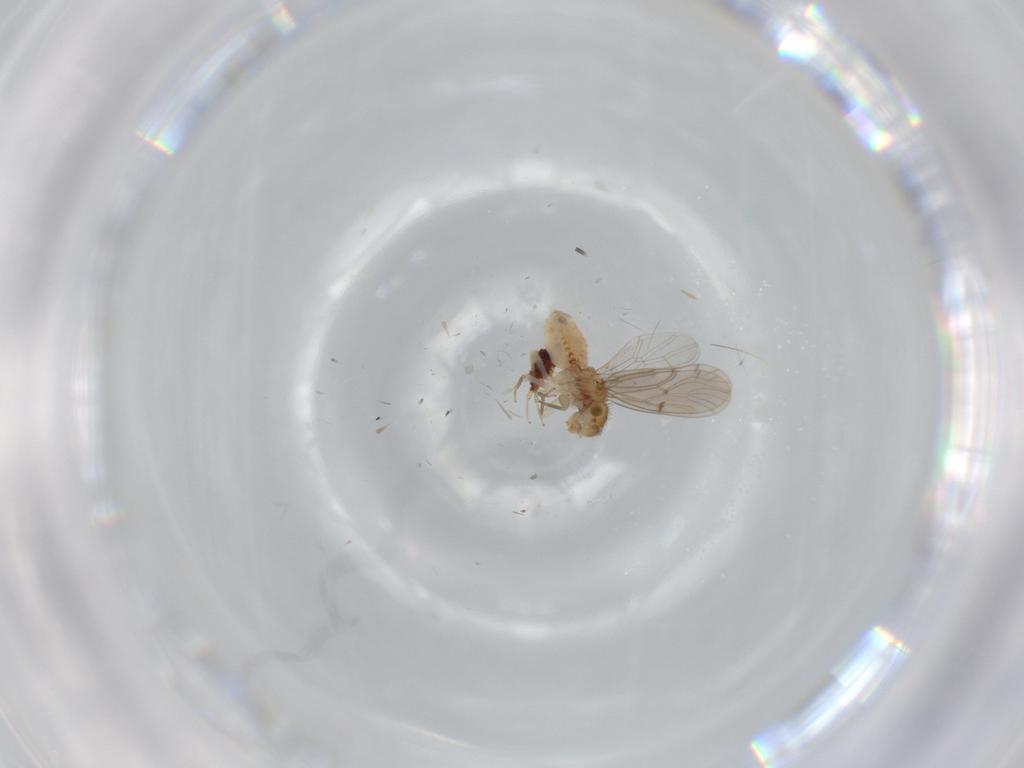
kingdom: Animalia
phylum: Arthropoda
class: Insecta
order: Psocodea
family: Ectopsocidae
